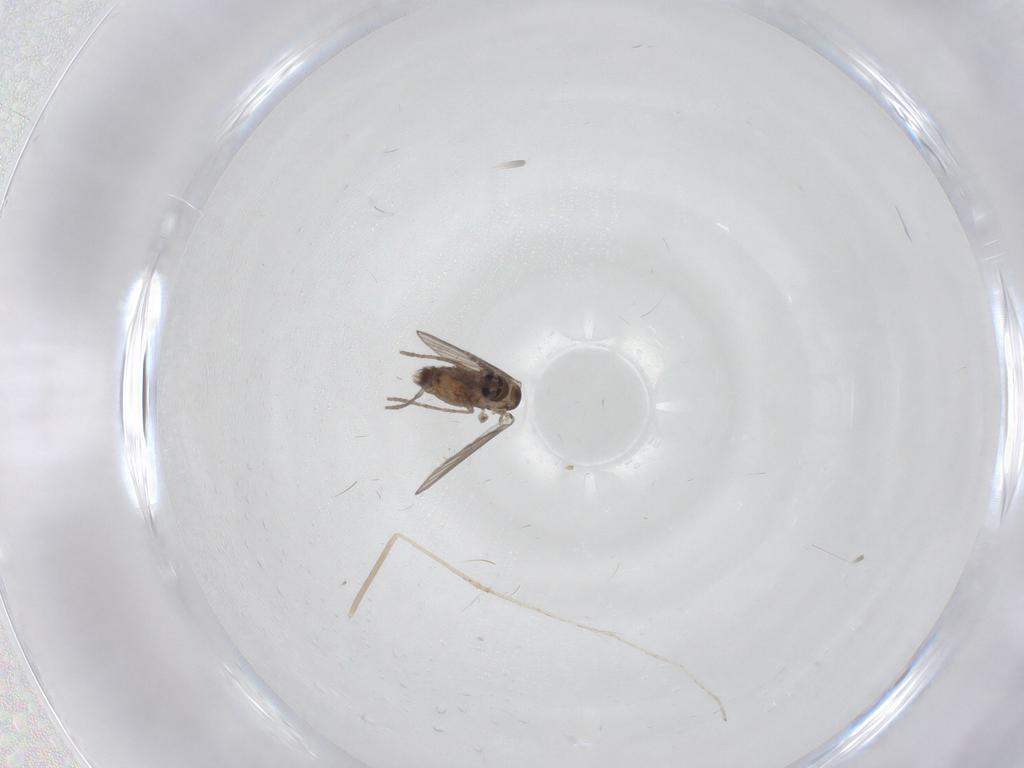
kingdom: Animalia
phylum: Arthropoda
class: Insecta
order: Diptera
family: Psychodidae
